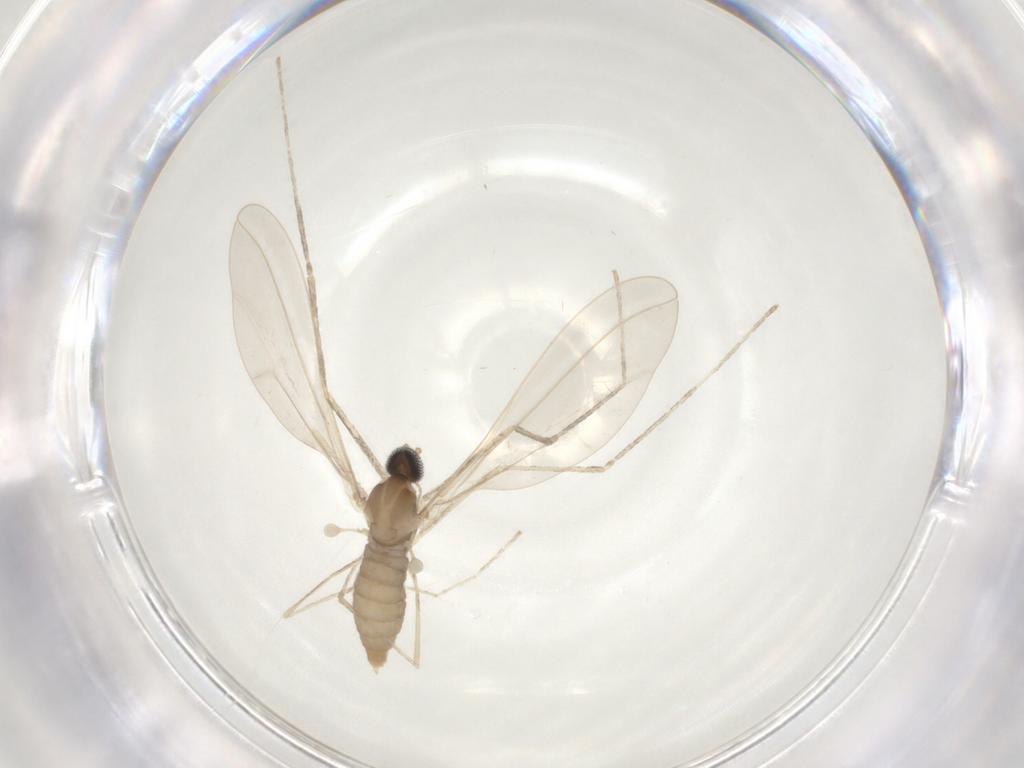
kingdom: Animalia
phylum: Arthropoda
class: Insecta
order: Diptera
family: Cecidomyiidae
